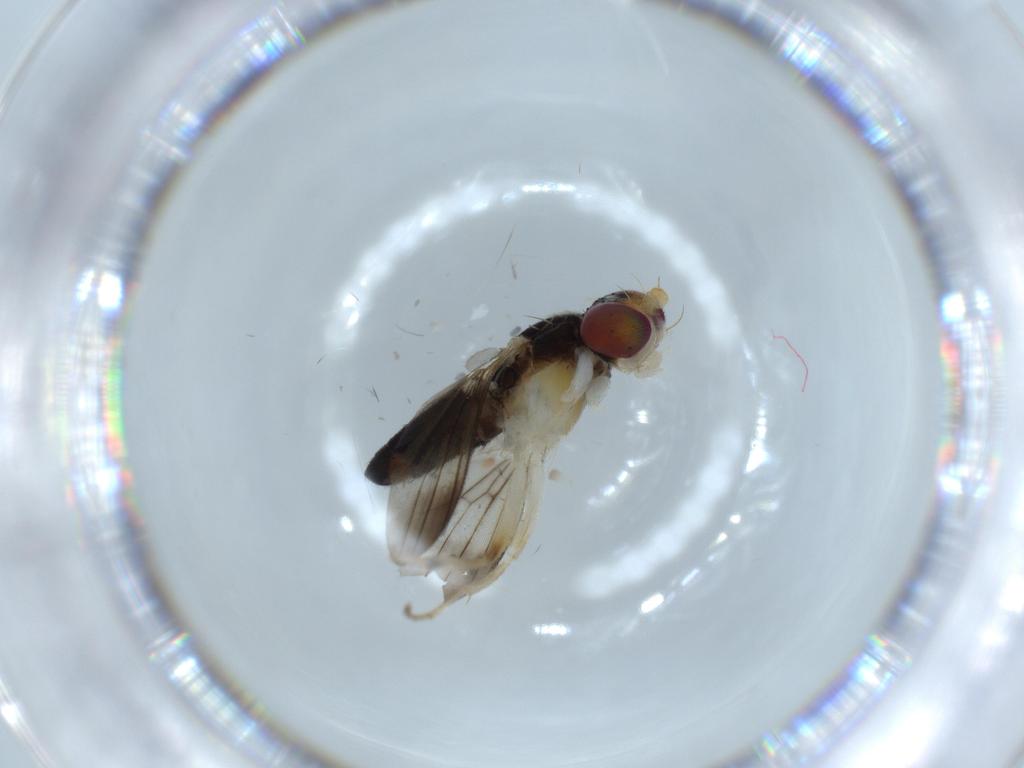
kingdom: Animalia
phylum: Arthropoda
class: Insecta
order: Diptera
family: Clusiidae
